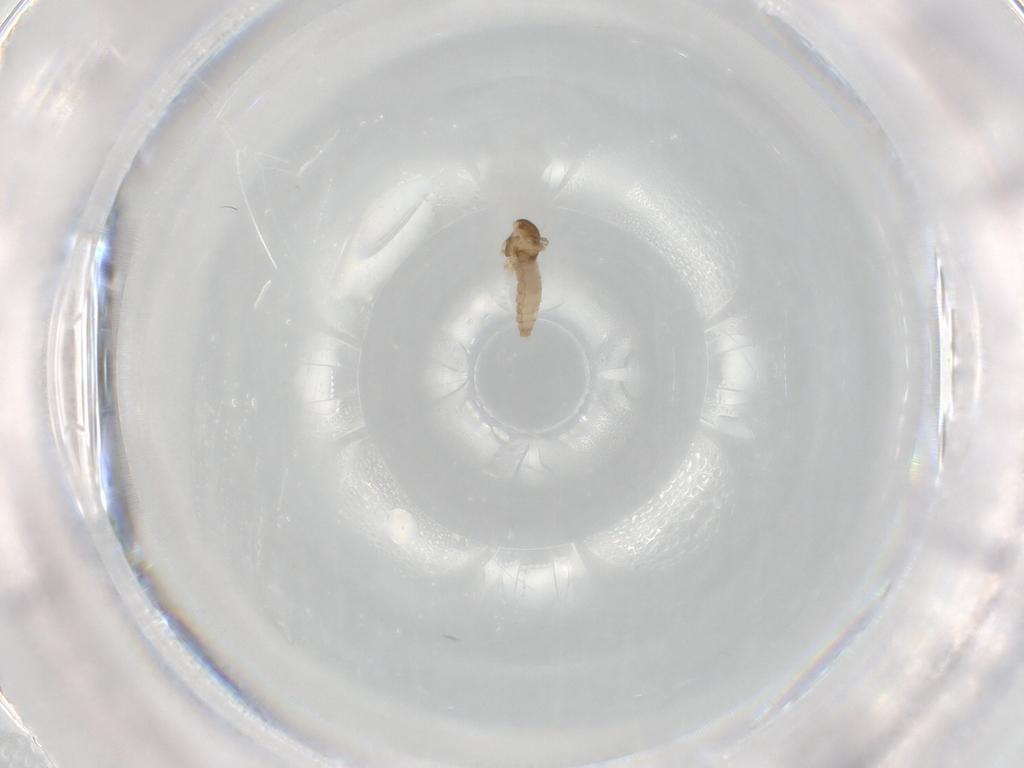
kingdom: Animalia
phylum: Arthropoda
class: Insecta
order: Diptera
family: Cecidomyiidae
